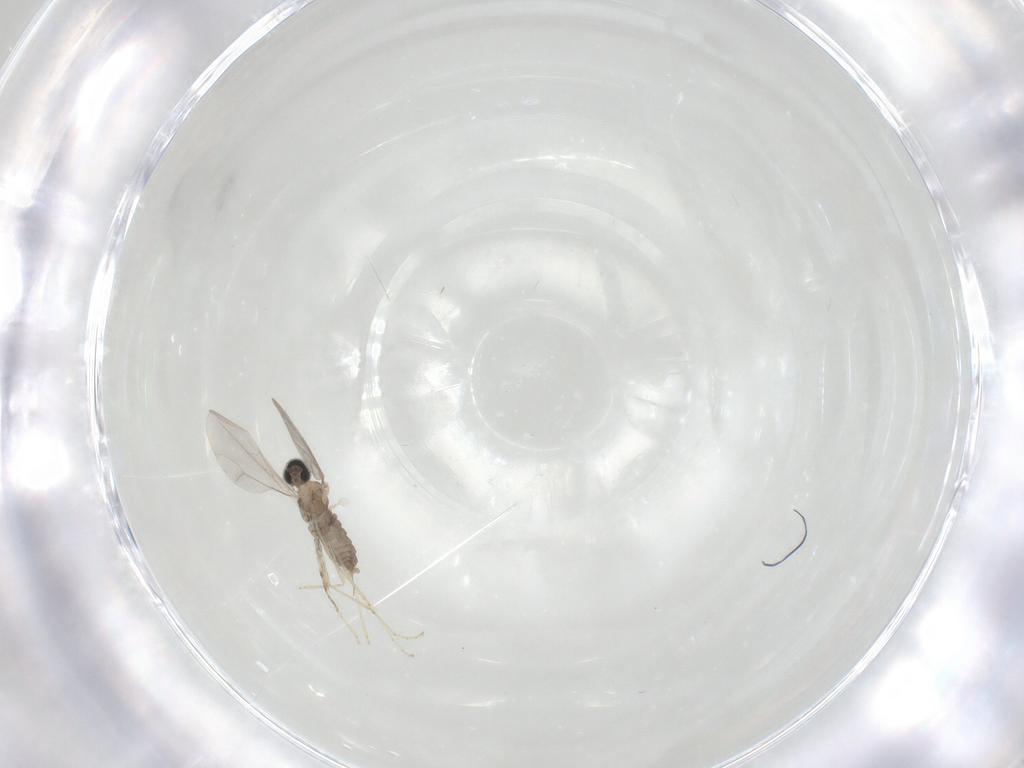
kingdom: Animalia
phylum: Arthropoda
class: Insecta
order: Diptera
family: Cecidomyiidae
